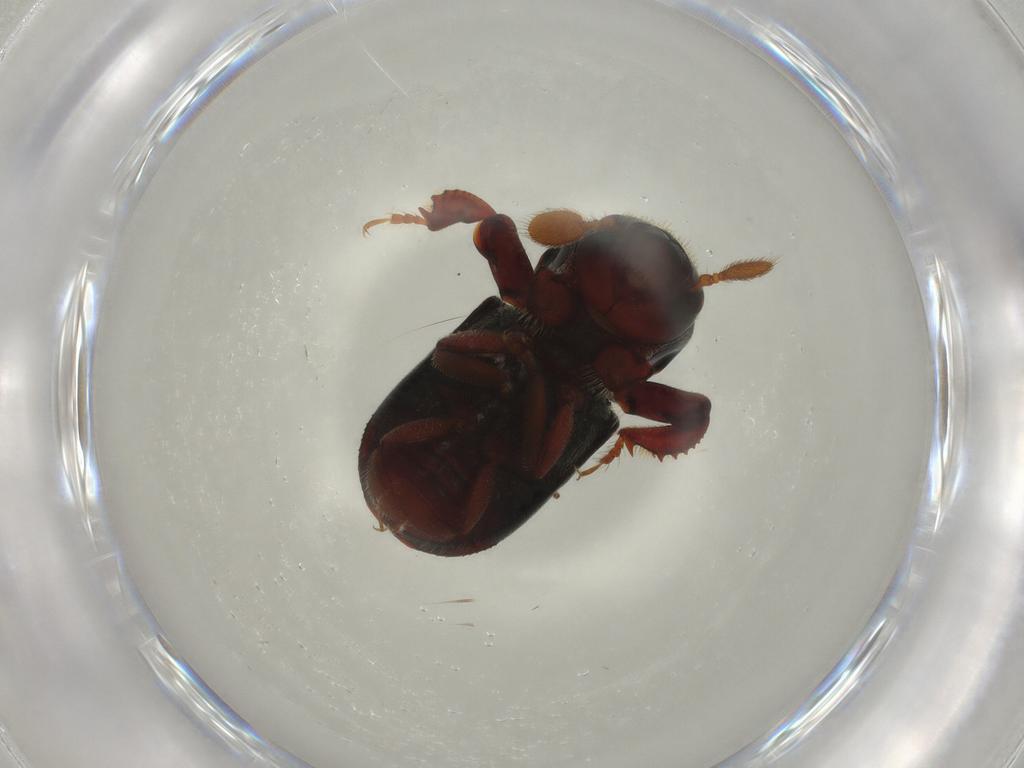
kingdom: Animalia
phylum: Arthropoda
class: Insecta
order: Coleoptera
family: Coccinellidae
